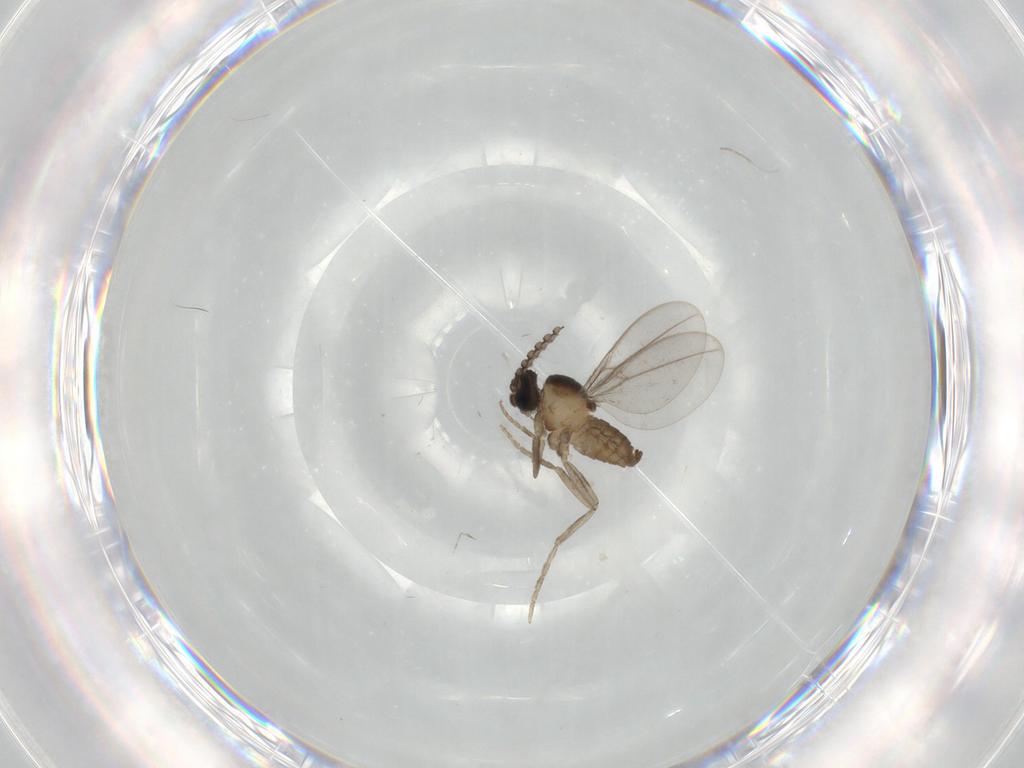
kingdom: Animalia
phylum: Arthropoda
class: Insecta
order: Diptera
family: Cecidomyiidae
